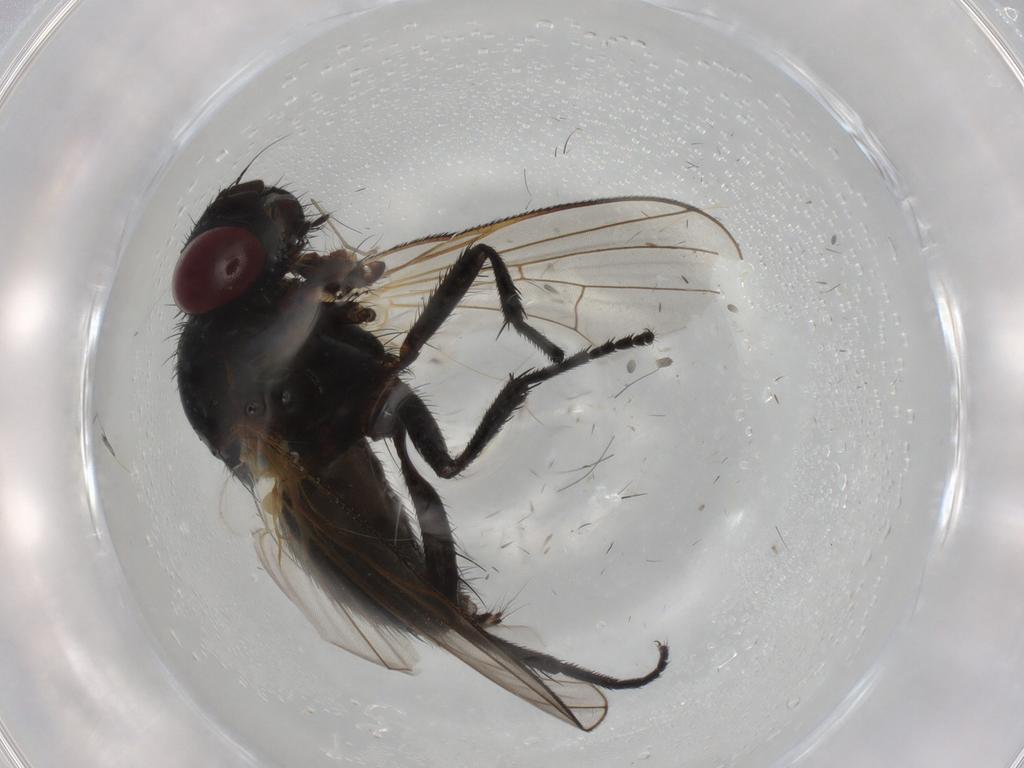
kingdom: Animalia
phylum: Arthropoda
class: Insecta
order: Diptera
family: Fannia
